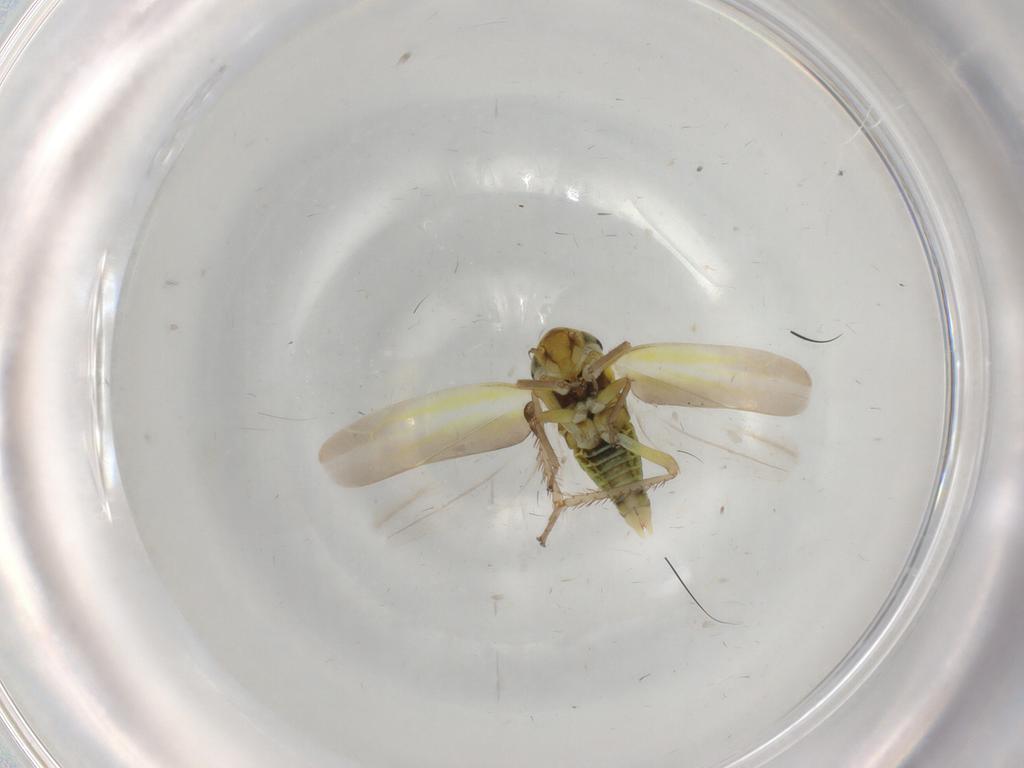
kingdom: Animalia
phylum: Arthropoda
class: Insecta
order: Hemiptera
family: Cicadellidae
